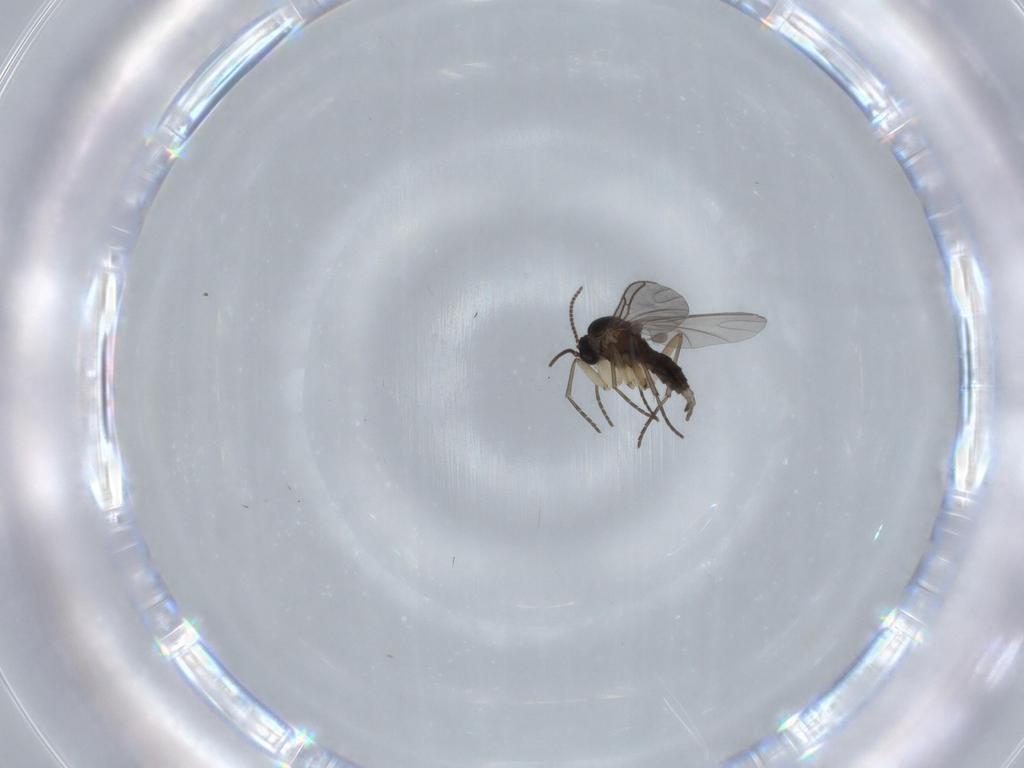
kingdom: Animalia
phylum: Arthropoda
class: Insecta
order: Diptera
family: Sciaridae
